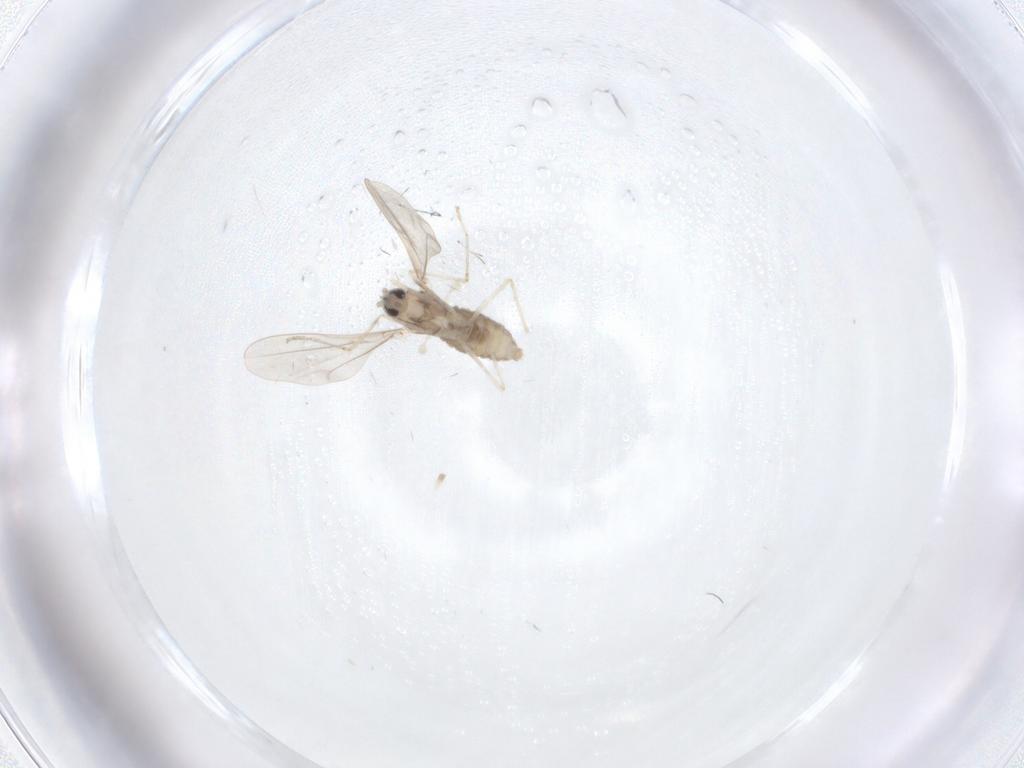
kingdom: Animalia
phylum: Arthropoda
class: Insecta
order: Diptera
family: Cecidomyiidae
